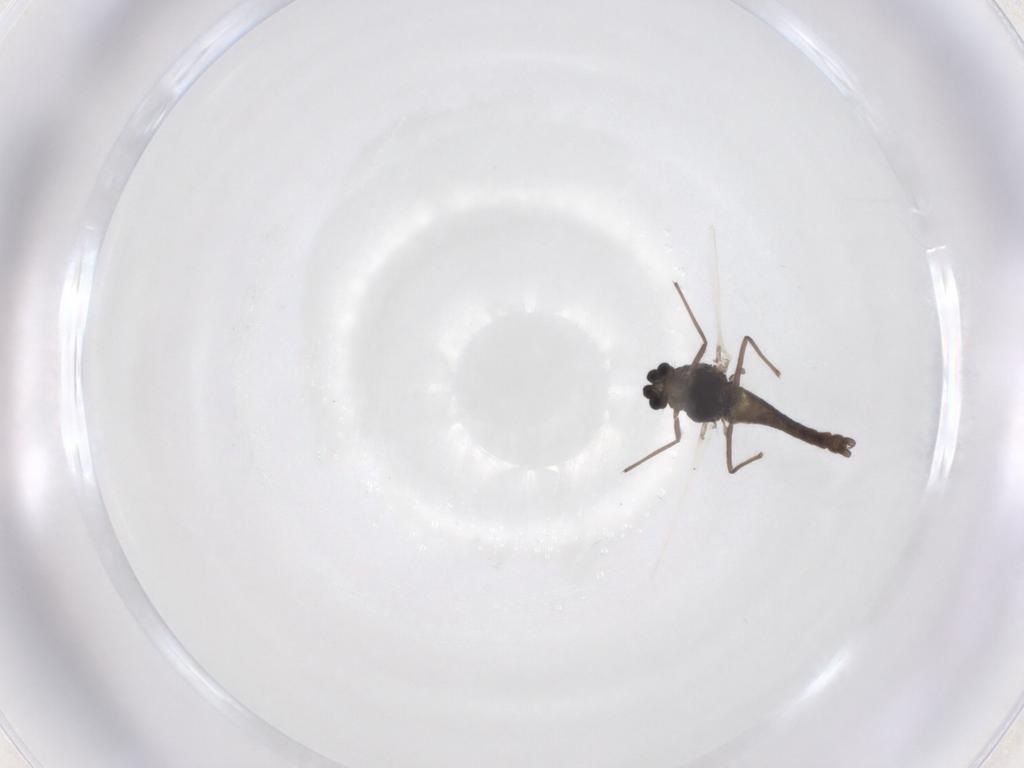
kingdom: Animalia
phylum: Arthropoda
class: Insecta
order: Diptera
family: Chironomidae
